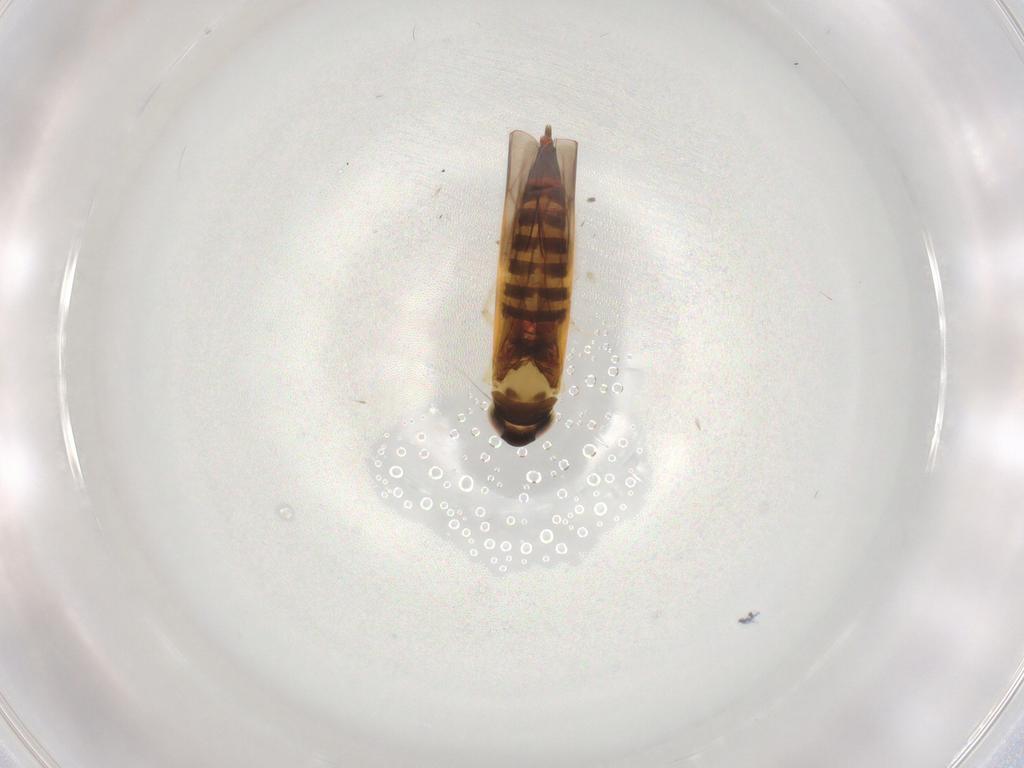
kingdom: Animalia
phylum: Arthropoda
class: Insecta
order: Hemiptera
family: Cicadellidae
